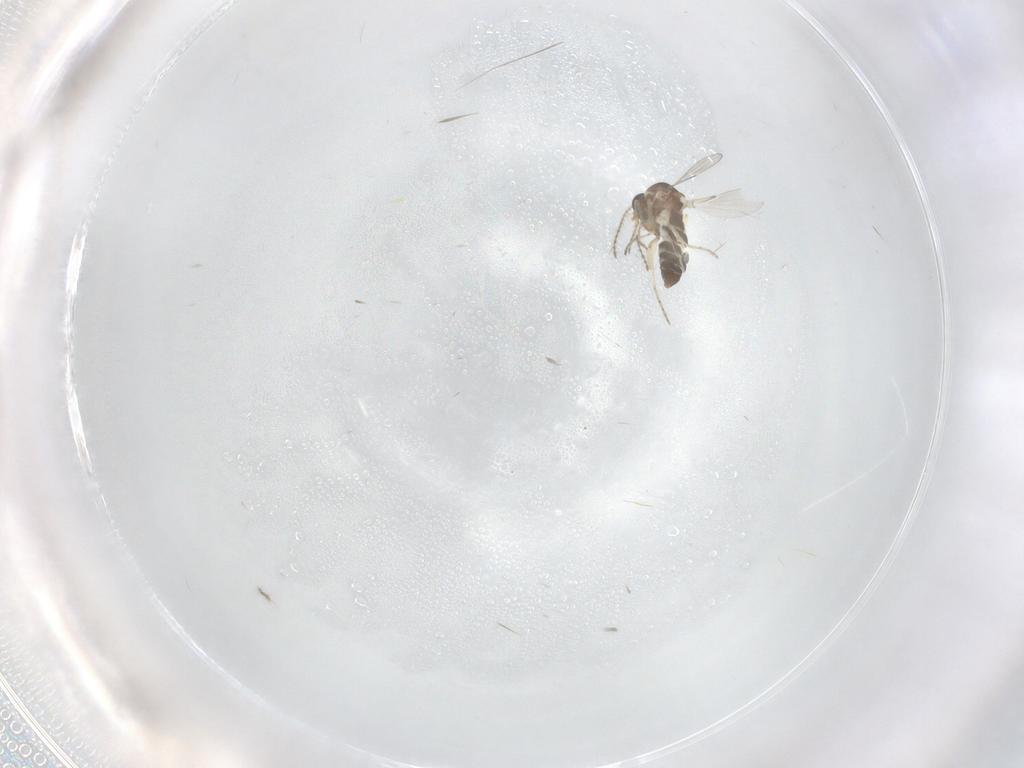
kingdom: Animalia
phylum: Arthropoda
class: Insecta
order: Diptera
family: Ceratopogonidae
